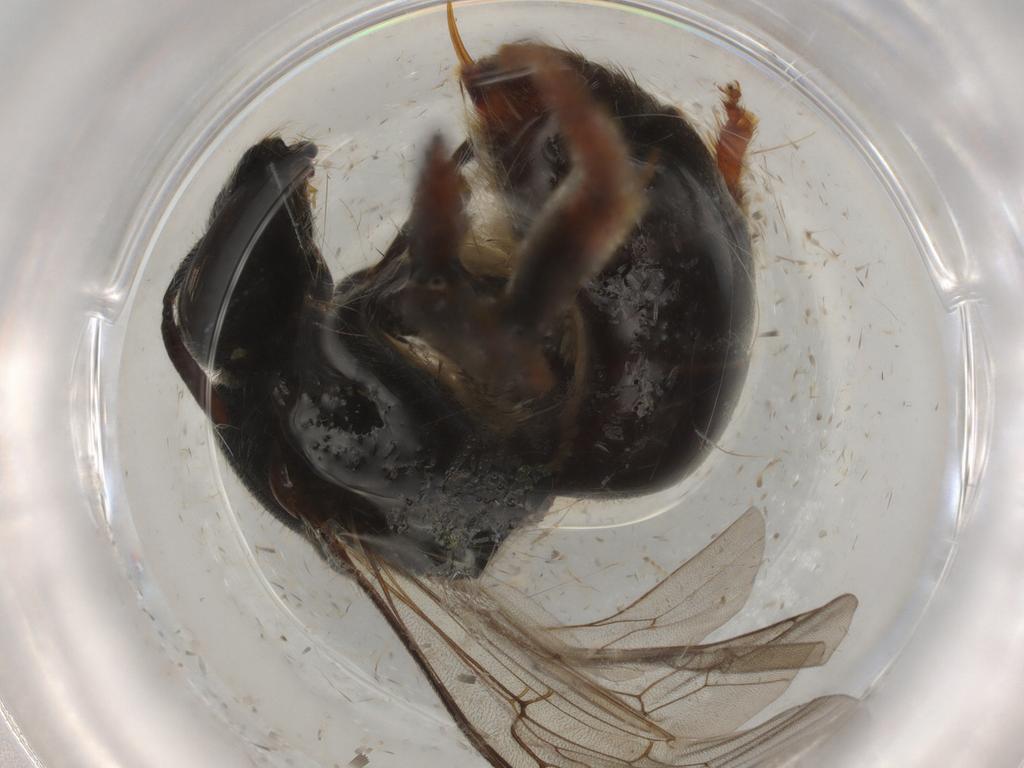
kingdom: Animalia
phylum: Arthropoda
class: Insecta
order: Hymenoptera
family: Halictidae
